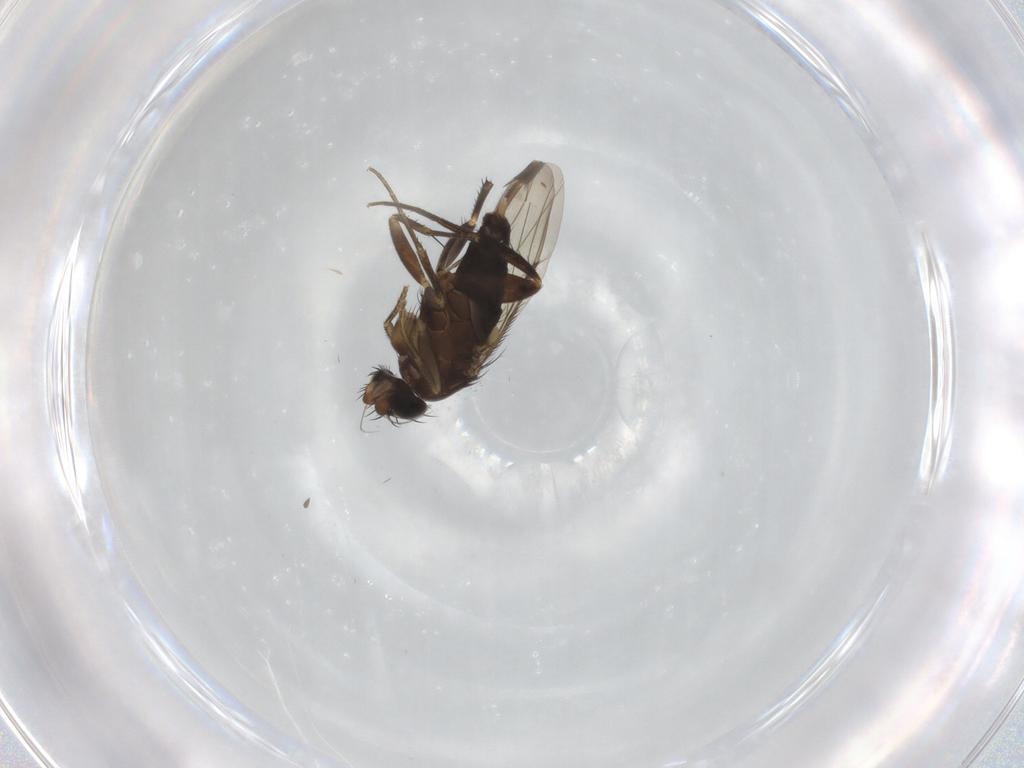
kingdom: Animalia
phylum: Arthropoda
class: Insecta
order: Diptera
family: Phoridae
